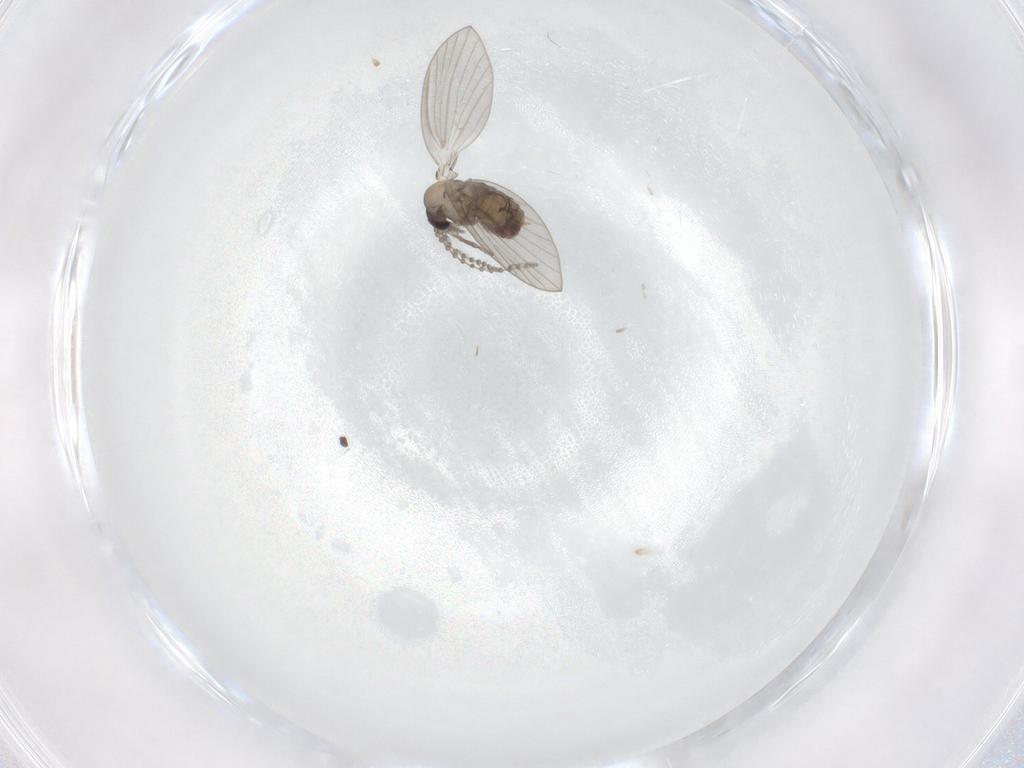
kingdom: Animalia
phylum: Arthropoda
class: Insecta
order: Diptera
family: Psychodidae
